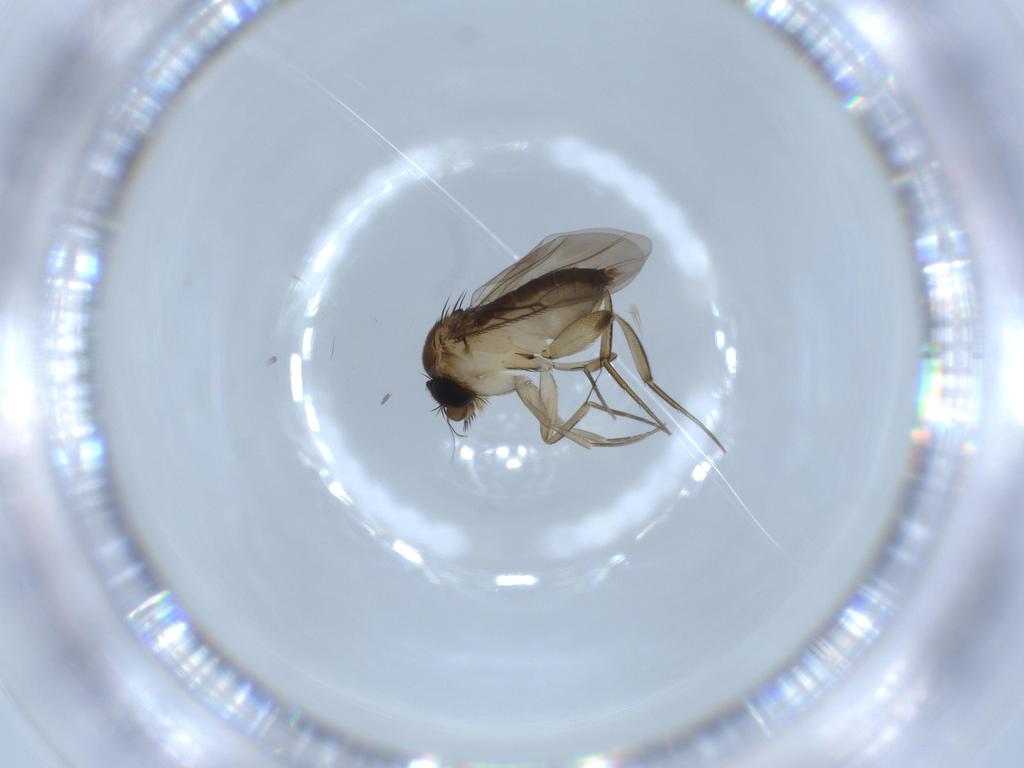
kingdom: Animalia
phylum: Arthropoda
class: Insecta
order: Diptera
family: Phoridae
